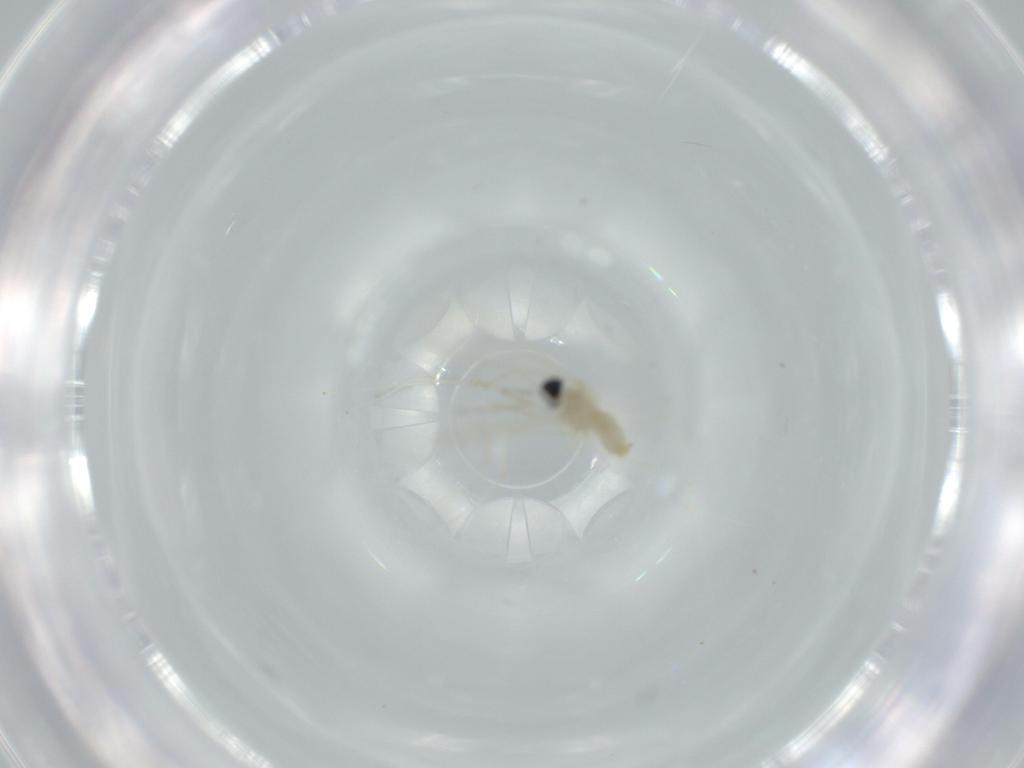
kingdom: Animalia
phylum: Arthropoda
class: Insecta
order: Diptera
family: Cecidomyiidae
